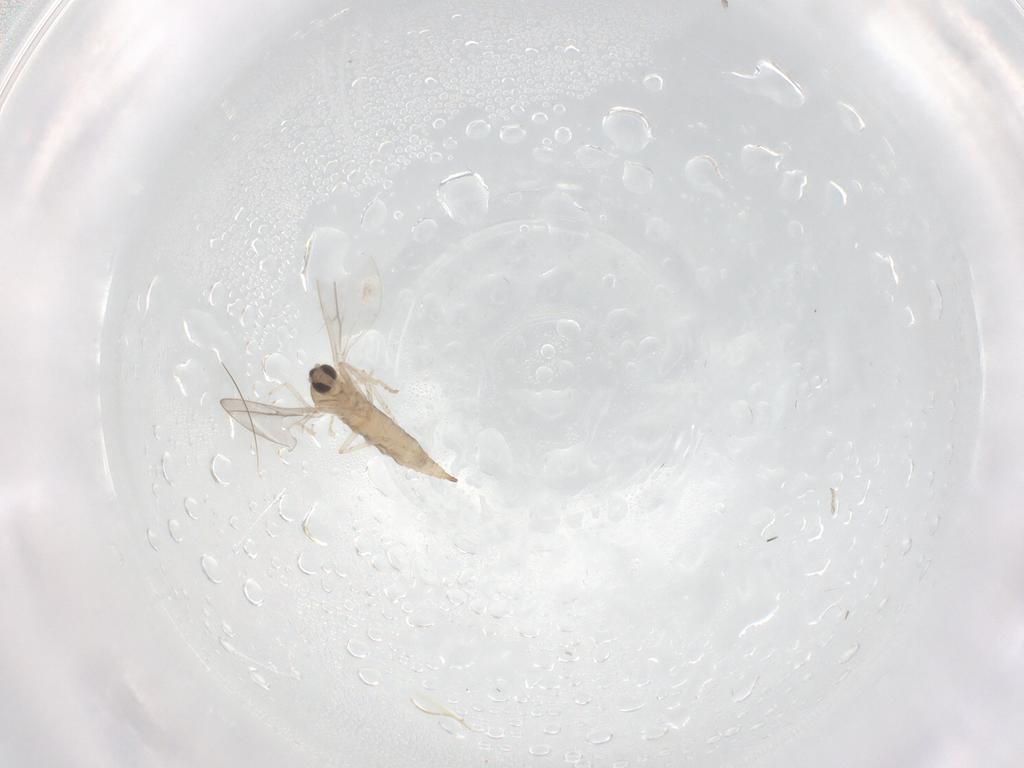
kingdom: Animalia
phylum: Arthropoda
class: Insecta
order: Diptera
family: Cecidomyiidae
